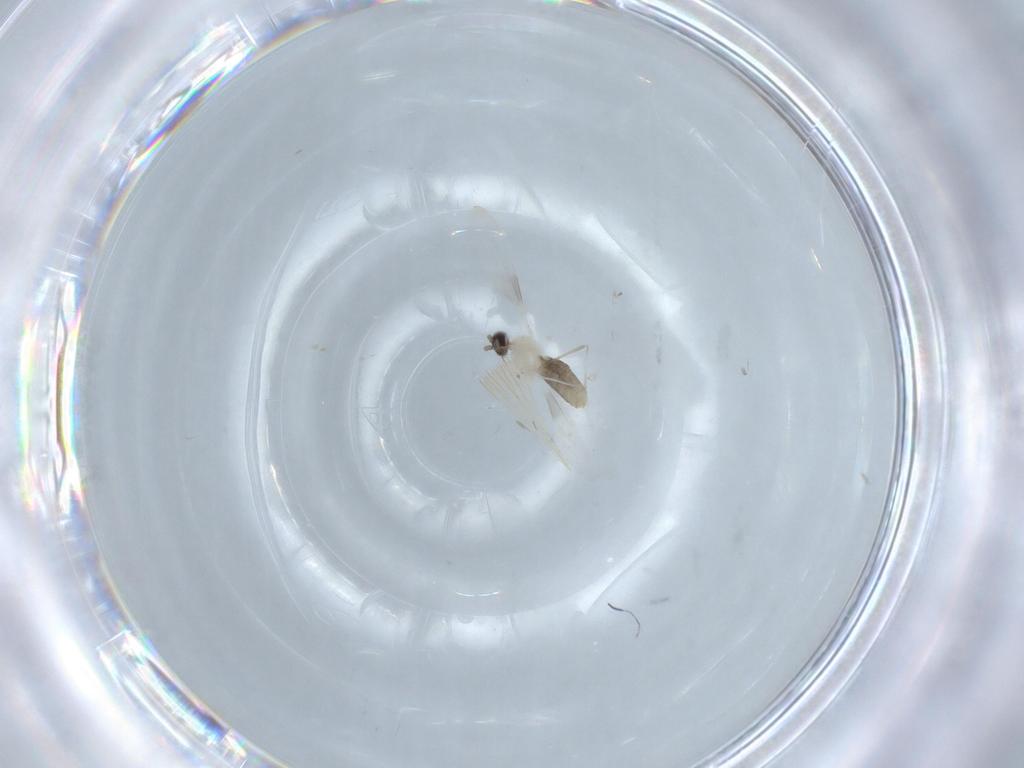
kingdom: Animalia
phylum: Arthropoda
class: Insecta
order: Diptera
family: Cecidomyiidae
